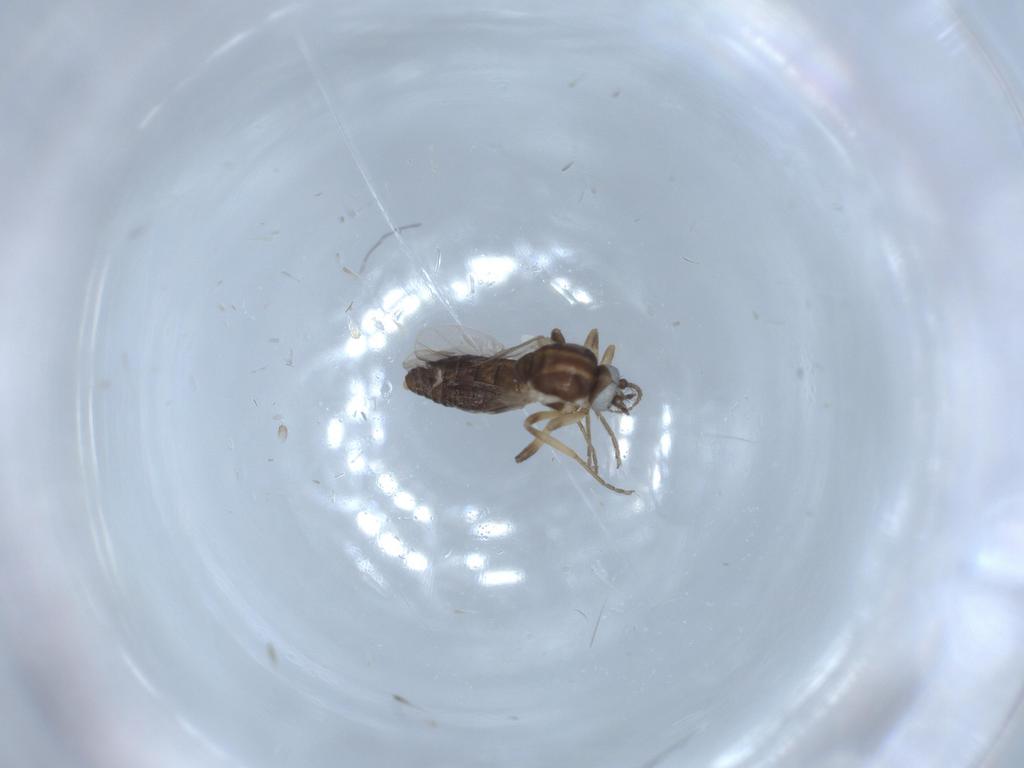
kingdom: Animalia
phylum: Arthropoda
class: Insecta
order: Diptera
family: Ceratopogonidae
